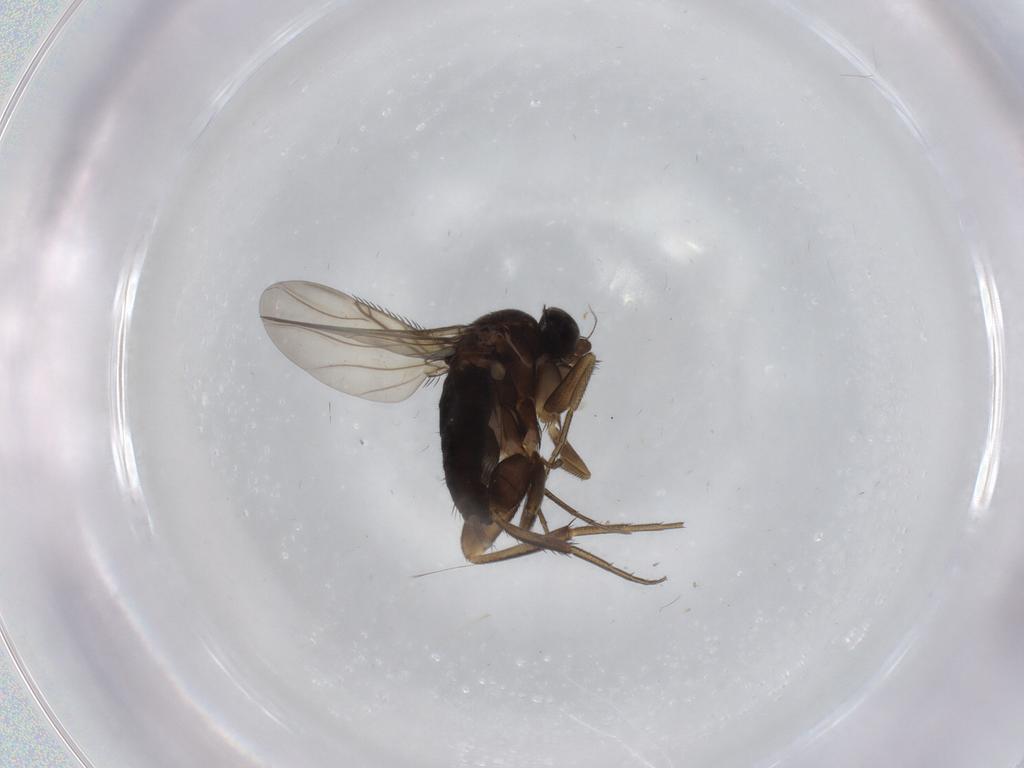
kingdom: Animalia
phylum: Arthropoda
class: Insecta
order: Diptera
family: Phoridae
